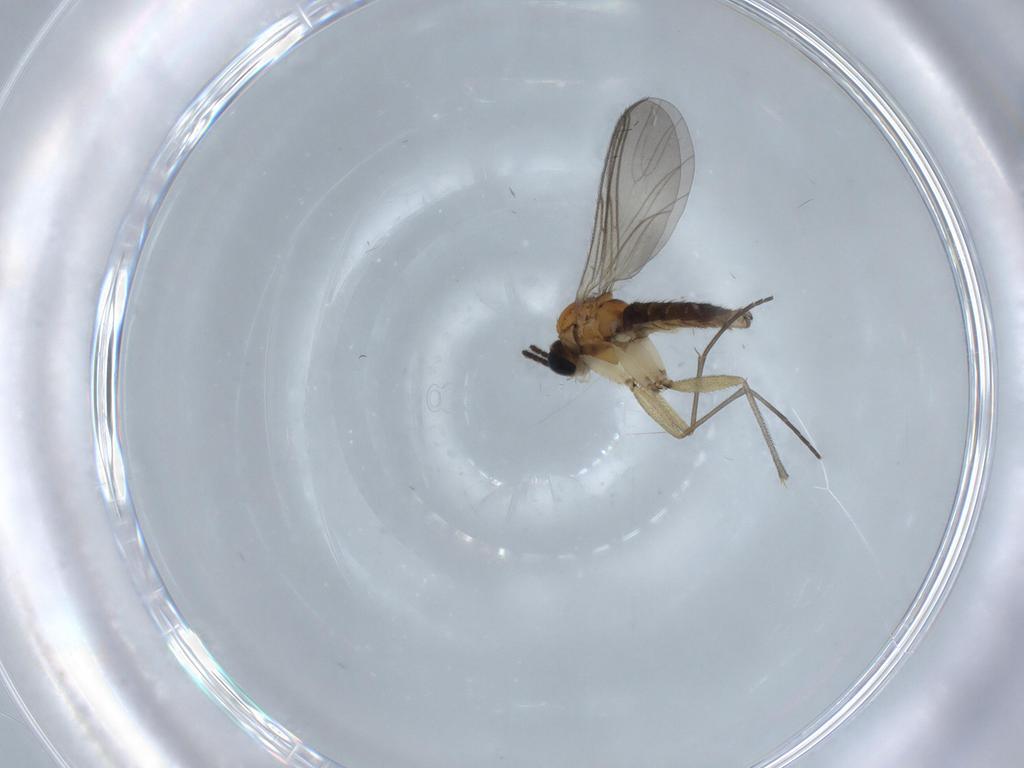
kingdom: Animalia
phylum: Arthropoda
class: Insecta
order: Diptera
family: Sciaridae
